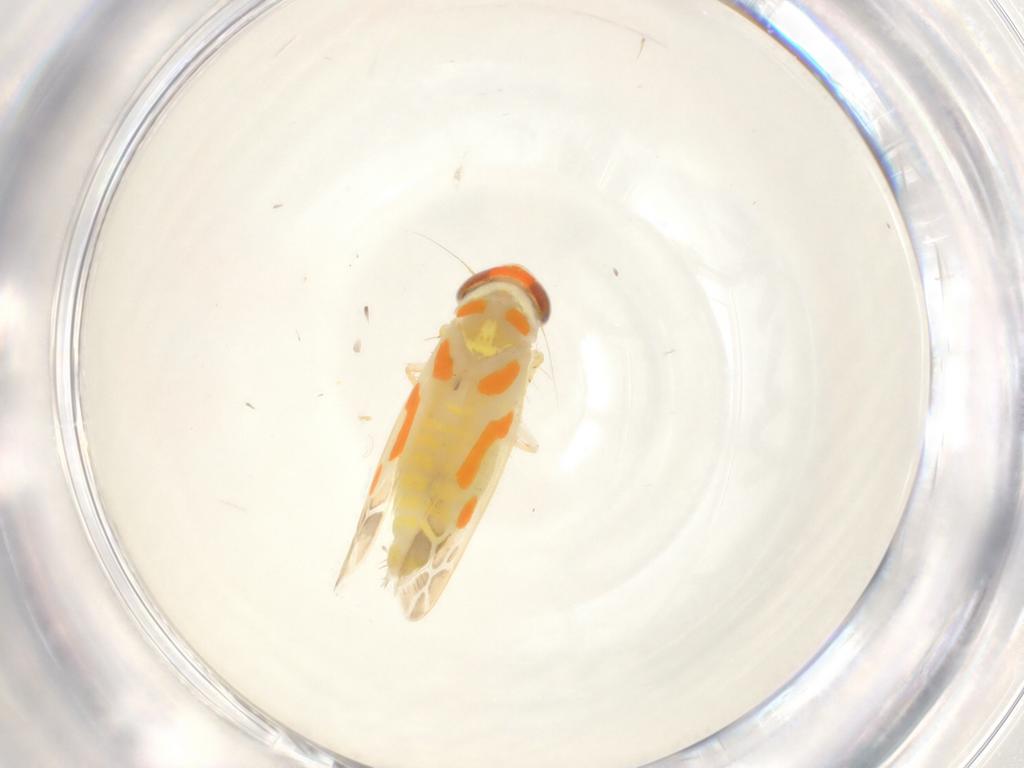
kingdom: Animalia
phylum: Arthropoda
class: Insecta
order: Hemiptera
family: Cicadellidae
